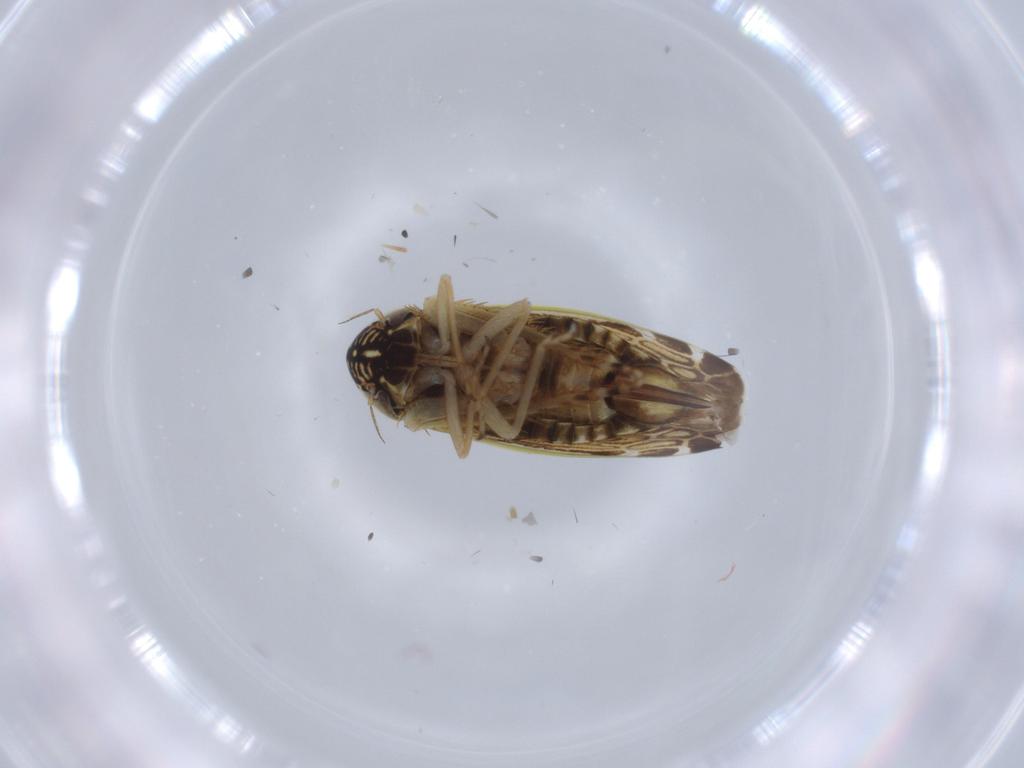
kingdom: Animalia
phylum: Arthropoda
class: Insecta
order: Hemiptera
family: Cicadellidae
